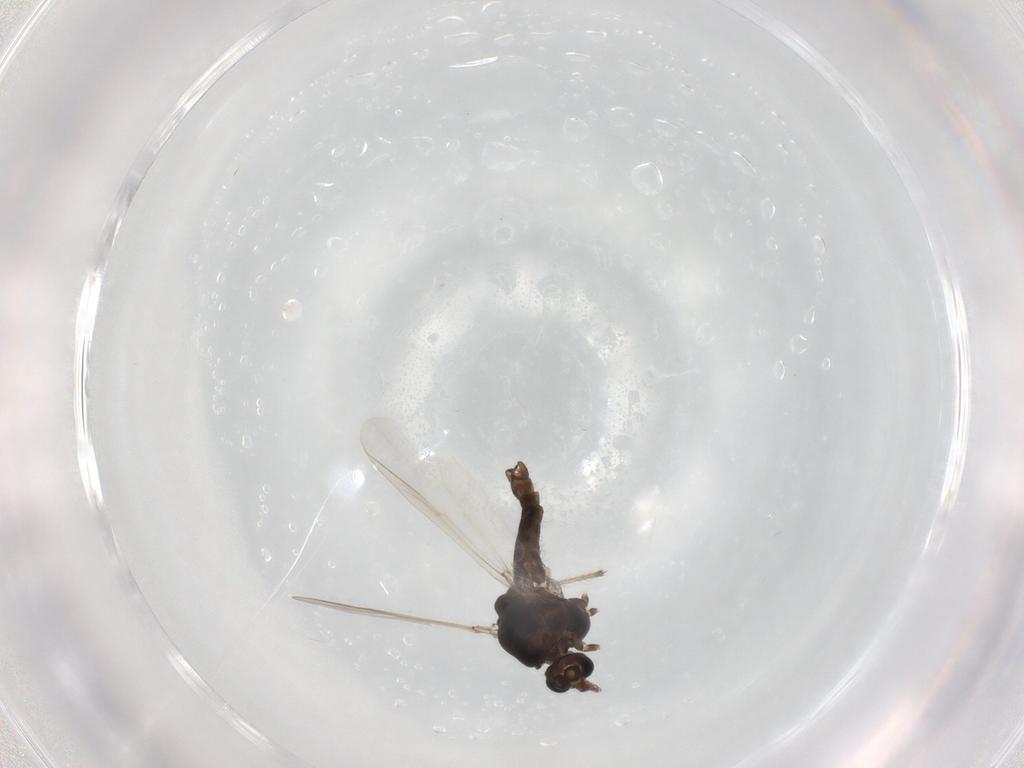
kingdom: Animalia
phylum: Arthropoda
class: Insecta
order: Diptera
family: Chironomidae
